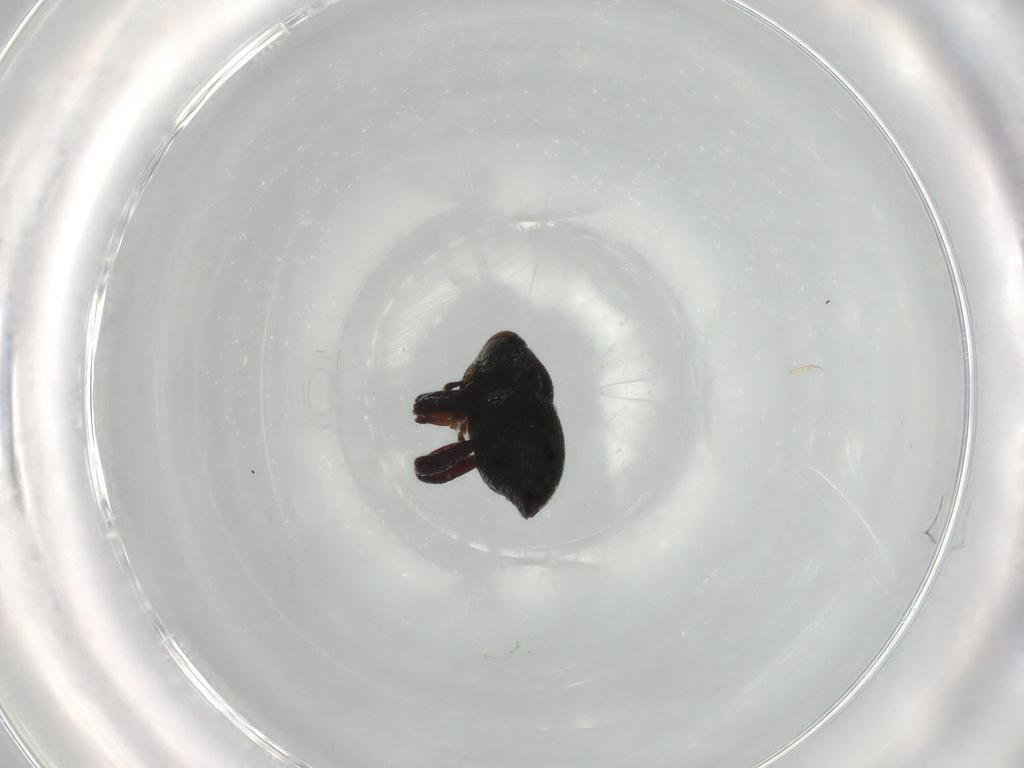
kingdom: Animalia
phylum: Arthropoda
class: Insecta
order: Coleoptera
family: Curculionidae
